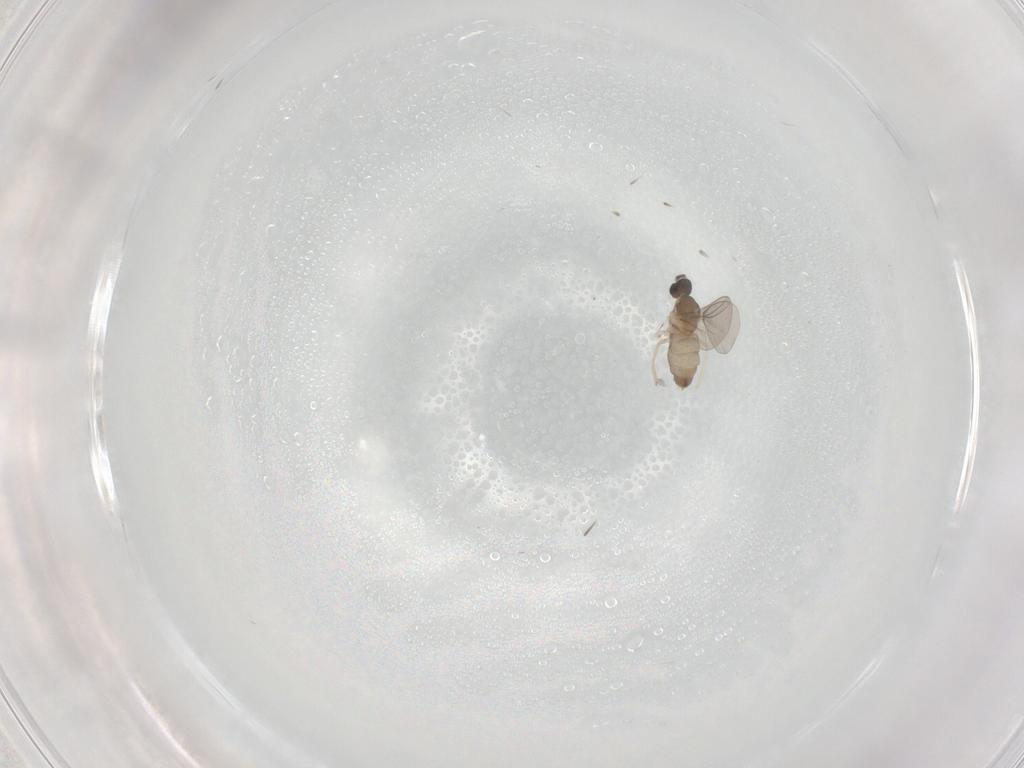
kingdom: Animalia
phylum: Arthropoda
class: Insecta
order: Diptera
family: Cecidomyiidae
